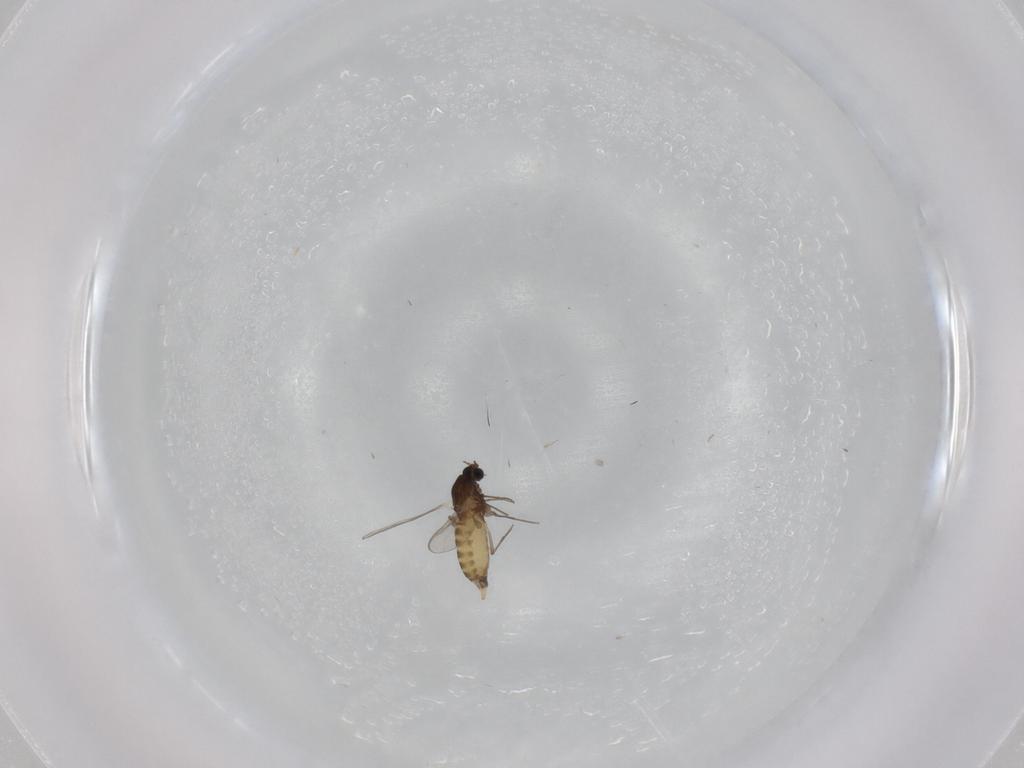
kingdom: Animalia
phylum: Arthropoda
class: Insecta
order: Diptera
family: Chironomidae
